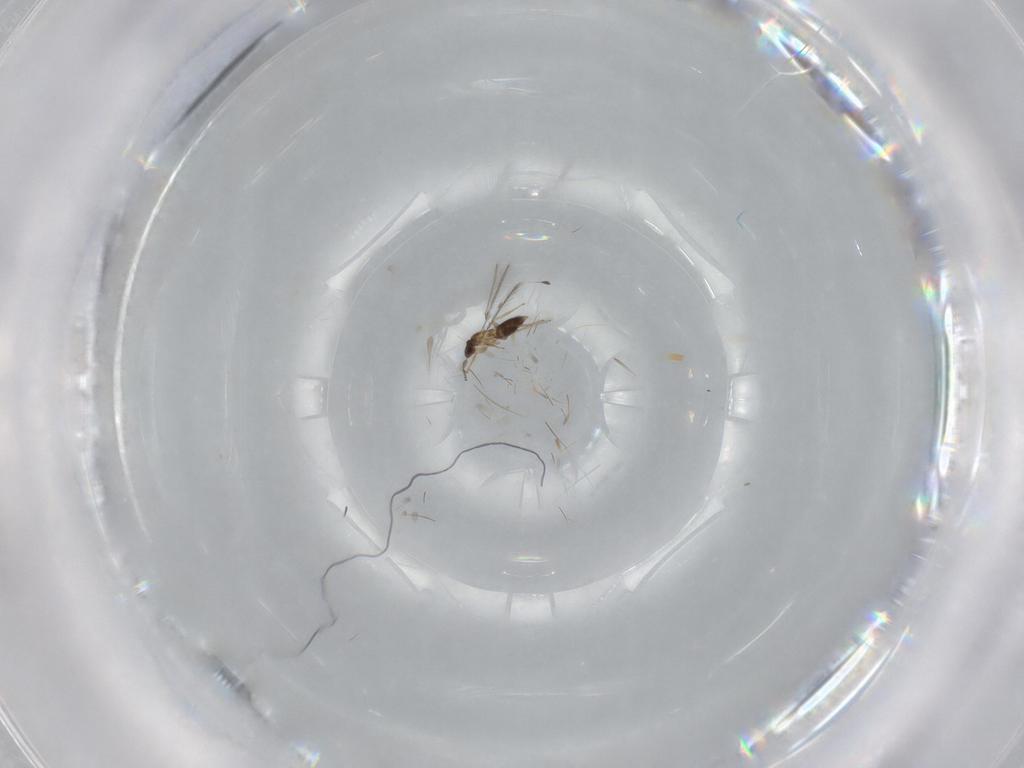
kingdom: Animalia
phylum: Arthropoda
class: Insecta
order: Hymenoptera
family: Mymaridae
